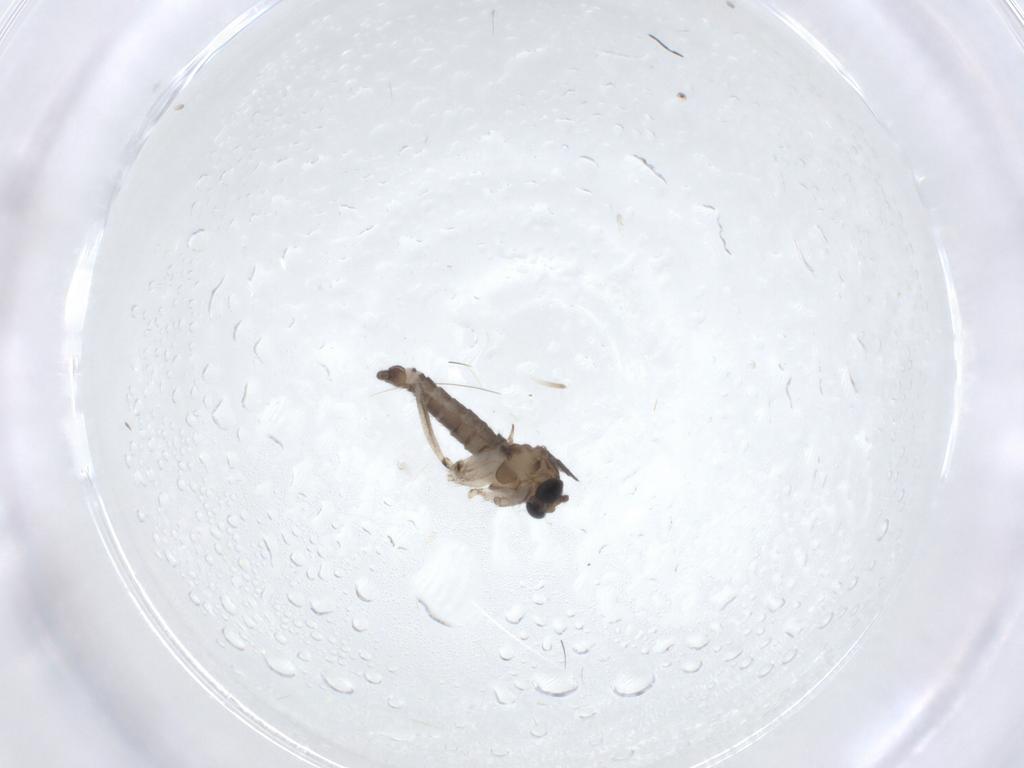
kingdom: Animalia
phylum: Arthropoda
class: Insecta
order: Diptera
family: Sciaridae
